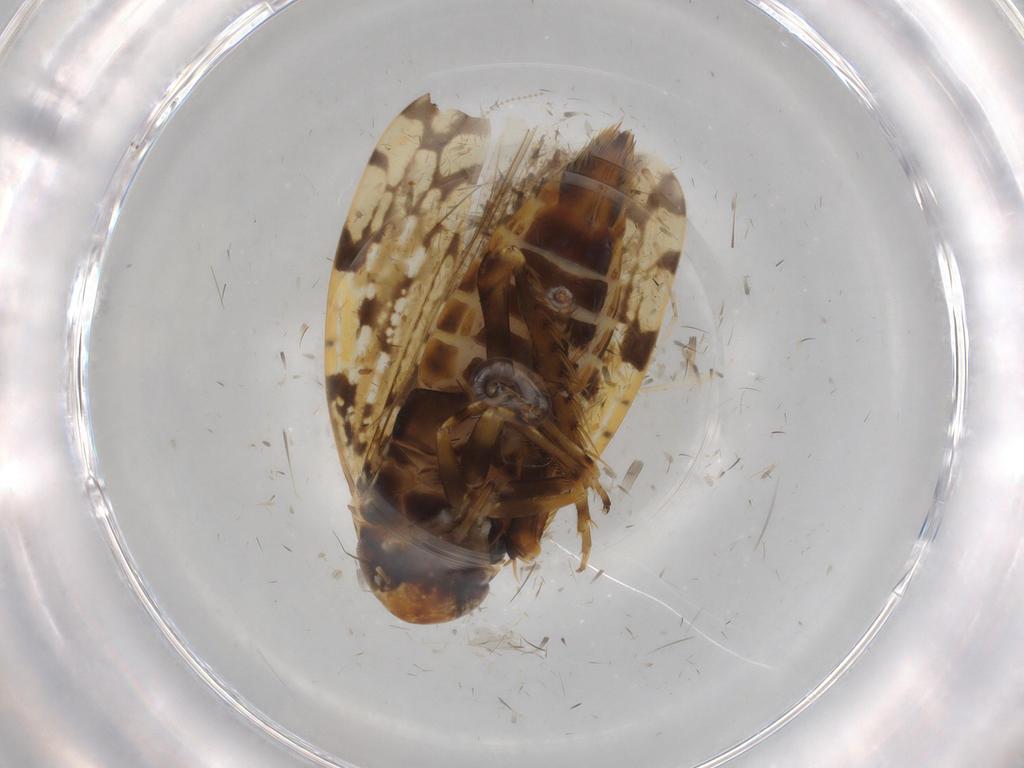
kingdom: Animalia
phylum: Arthropoda
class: Insecta
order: Hemiptera
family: Cicadellidae
